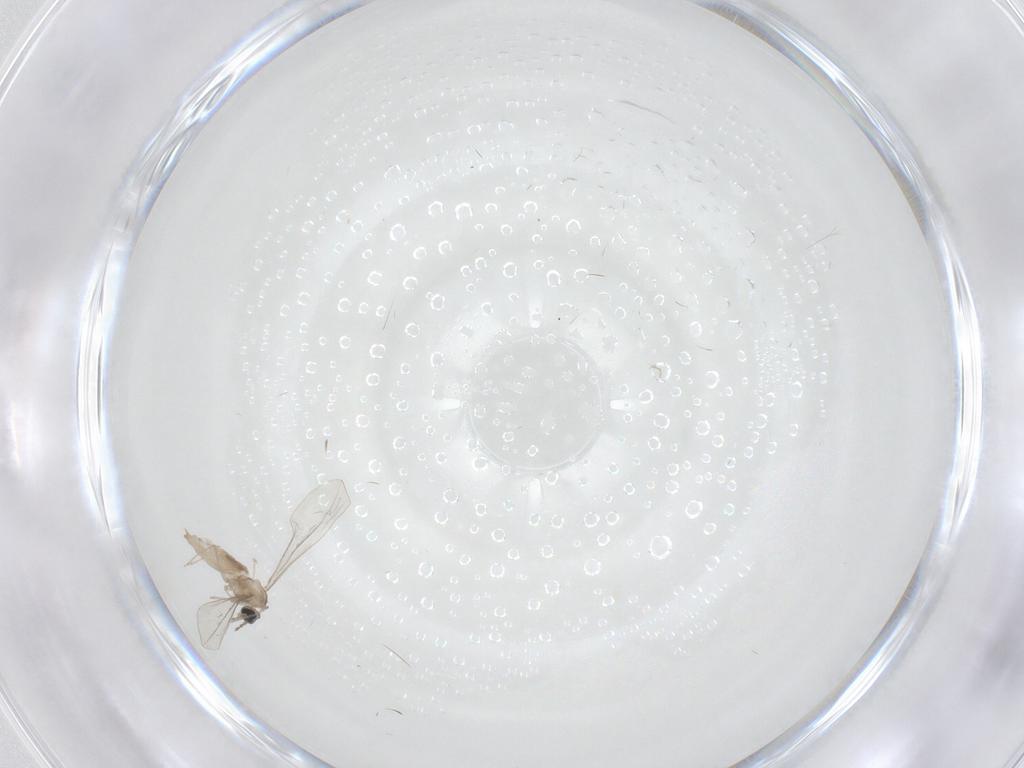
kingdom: Animalia
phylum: Arthropoda
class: Insecta
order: Diptera
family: Cecidomyiidae
